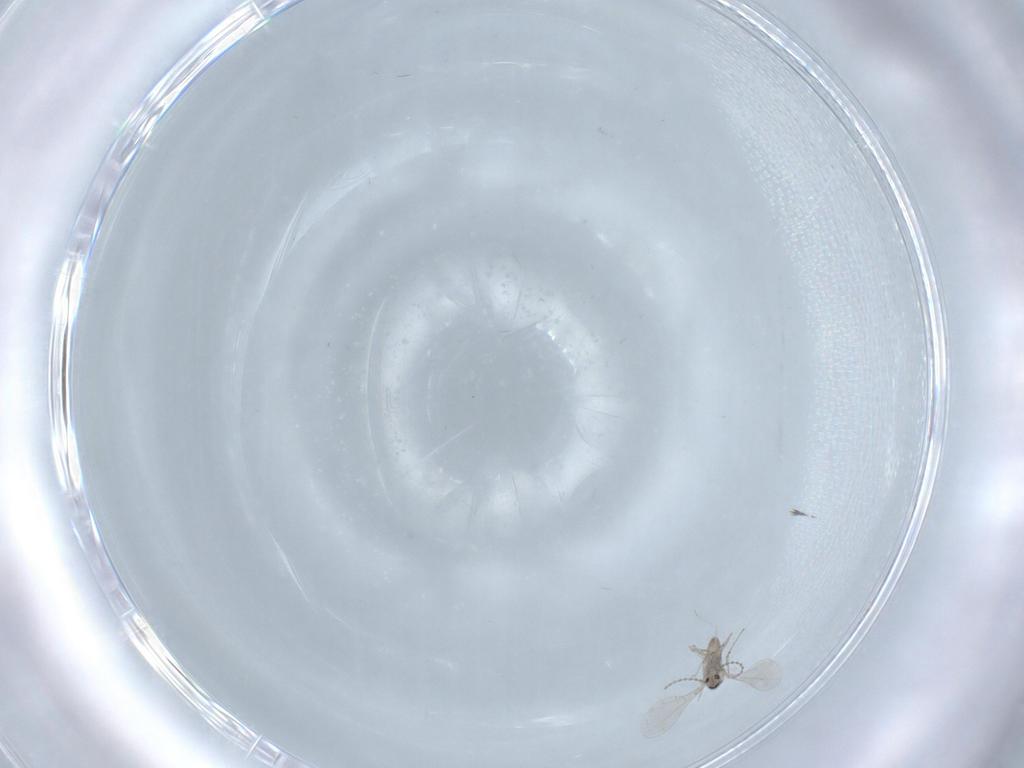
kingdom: Animalia
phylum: Arthropoda
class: Insecta
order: Diptera
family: Cecidomyiidae
